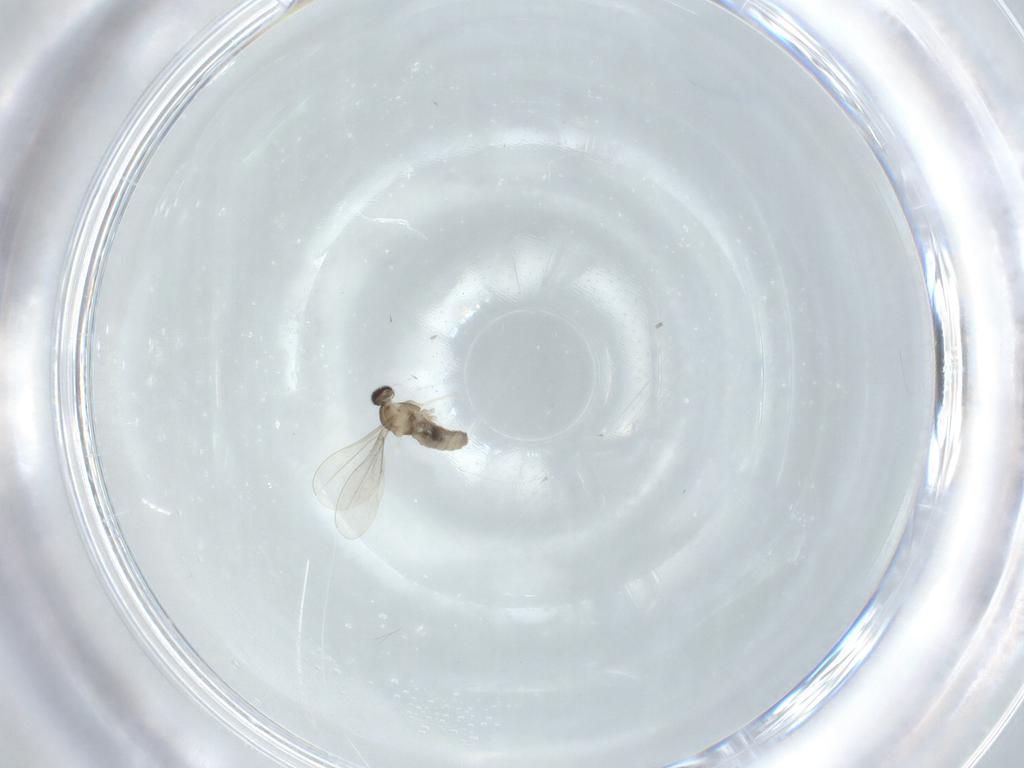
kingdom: Animalia
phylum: Arthropoda
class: Insecta
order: Diptera
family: Cecidomyiidae
